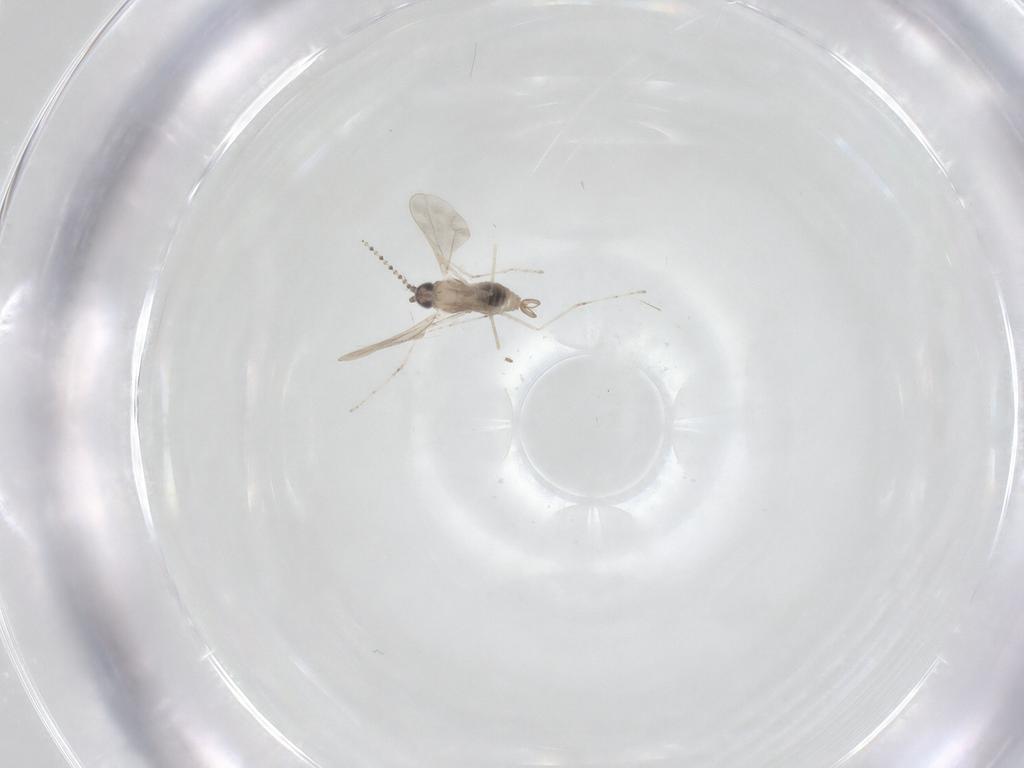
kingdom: Animalia
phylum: Arthropoda
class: Insecta
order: Diptera
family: Cecidomyiidae
